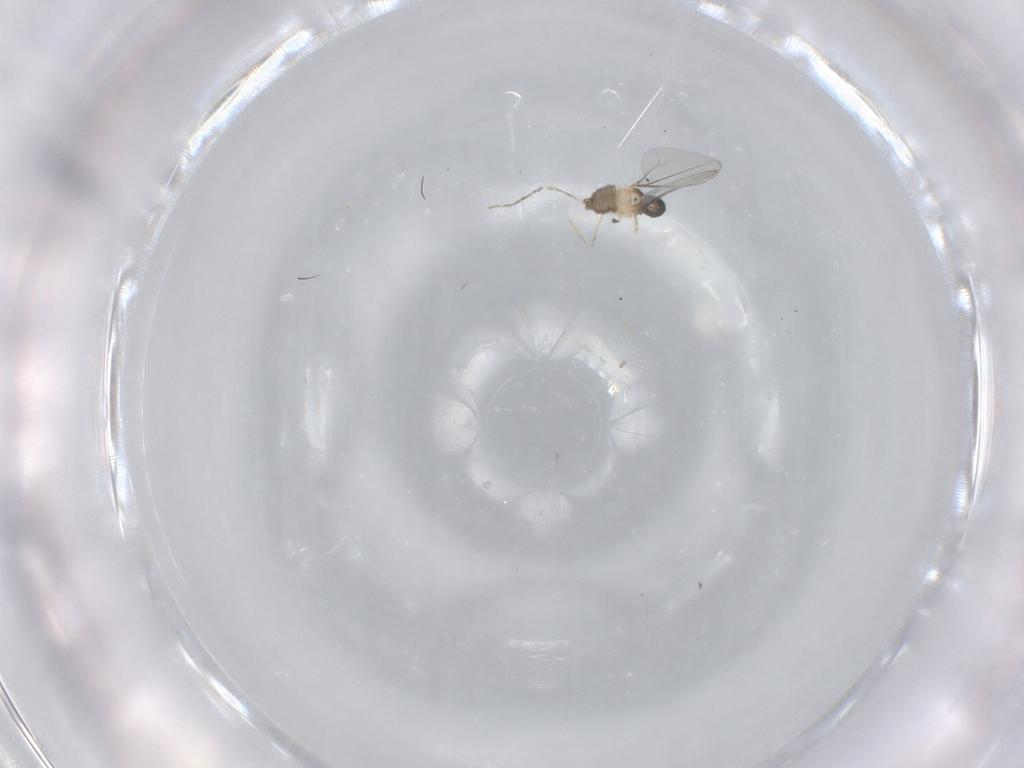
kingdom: Animalia
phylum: Arthropoda
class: Insecta
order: Diptera
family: Cecidomyiidae
